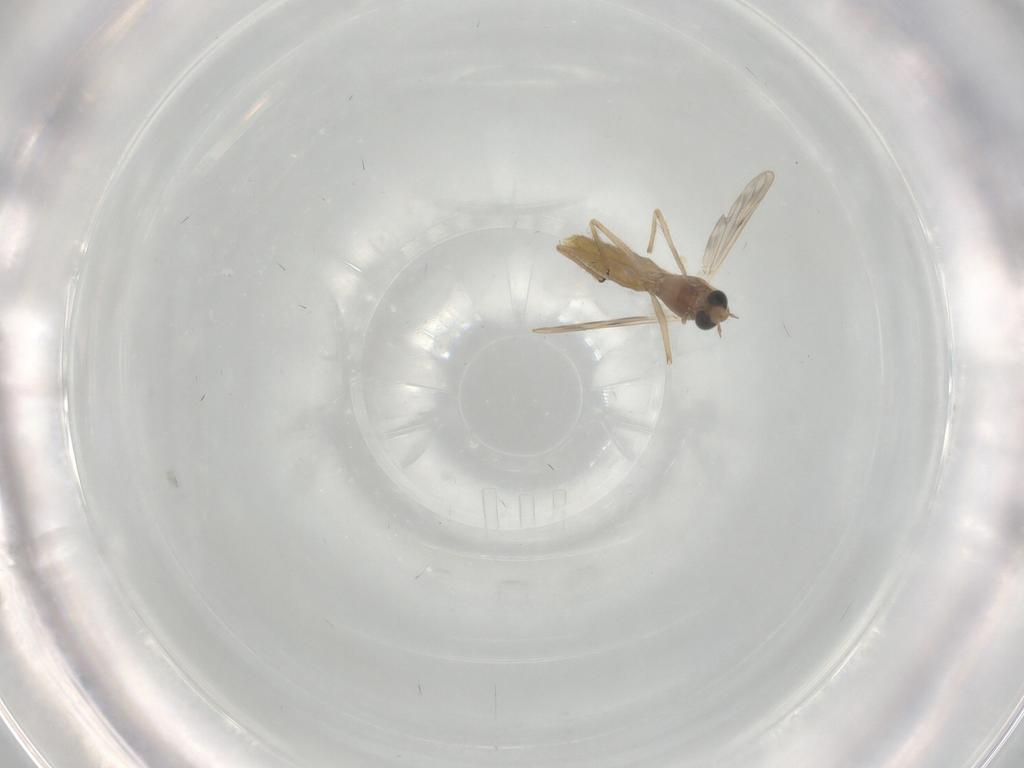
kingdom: Animalia
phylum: Arthropoda
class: Insecta
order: Diptera
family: Chironomidae
